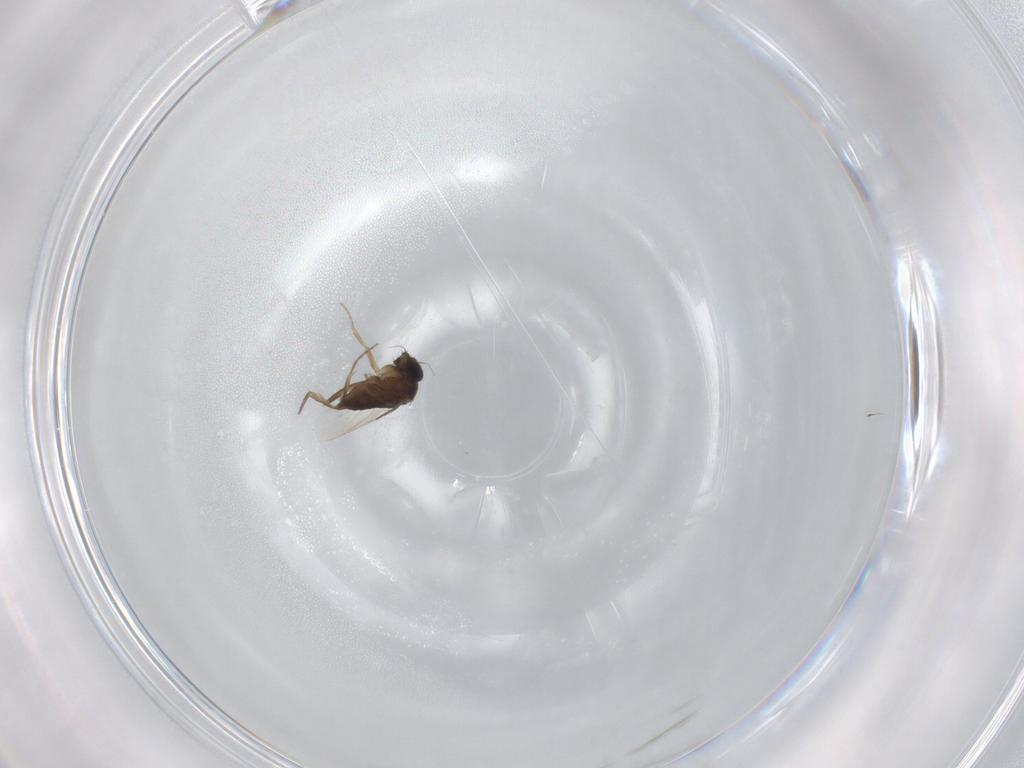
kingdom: Animalia
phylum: Arthropoda
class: Insecta
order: Diptera
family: Phoridae
